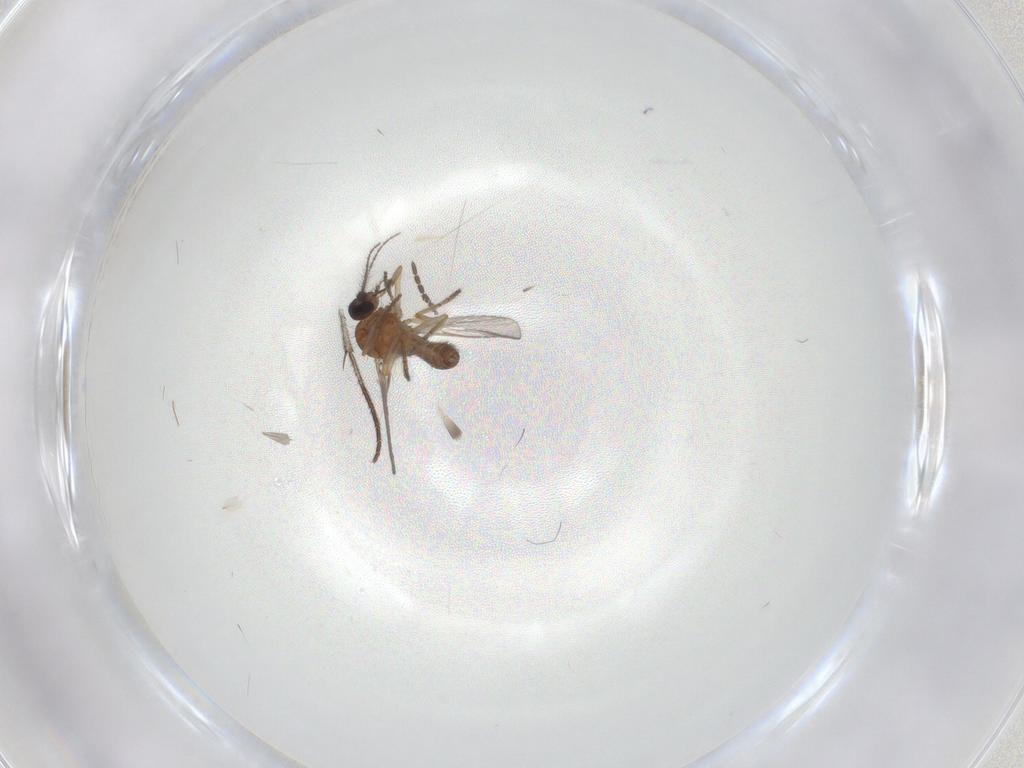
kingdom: Animalia
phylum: Arthropoda
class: Insecta
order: Diptera
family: Ceratopogonidae
